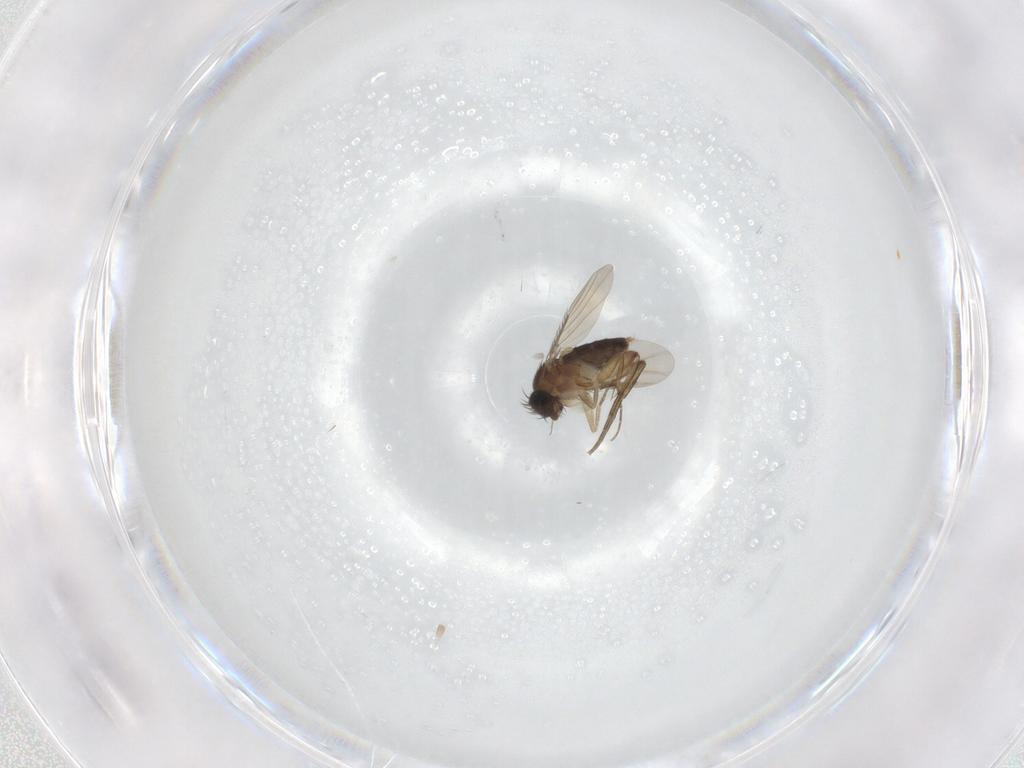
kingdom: Animalia
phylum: Arthropoda
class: Insecta
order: Diptera
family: Phoridae
